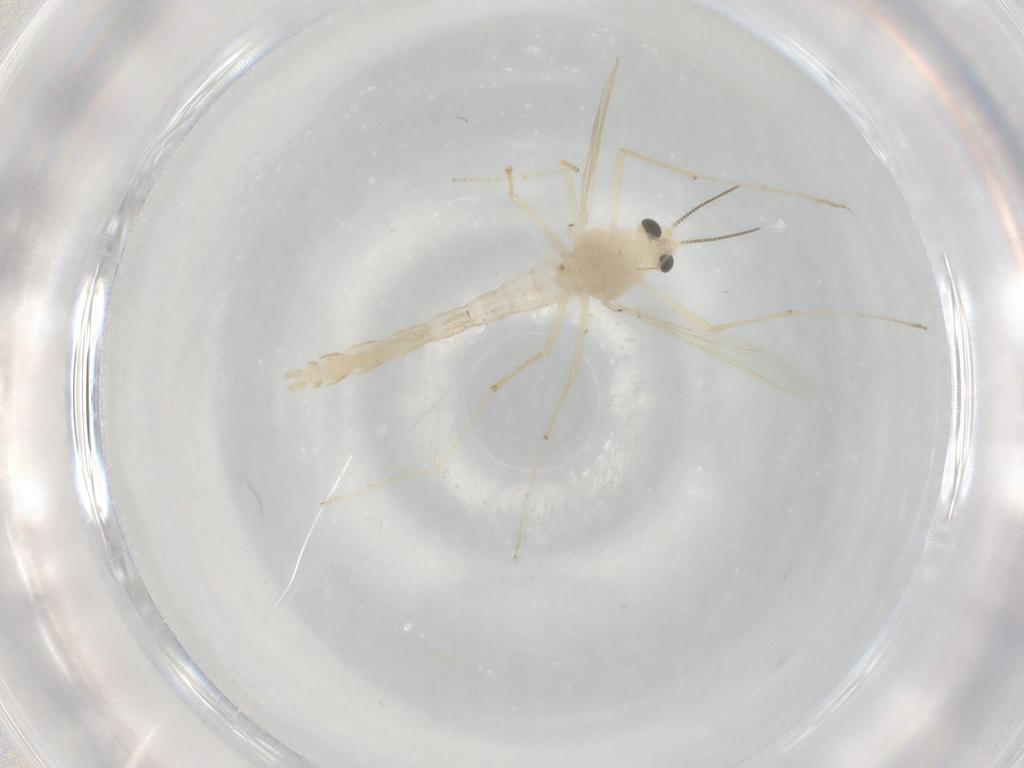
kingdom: Animalia
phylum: Arthropoda
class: Insecta
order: Diptera
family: Chironomidae
